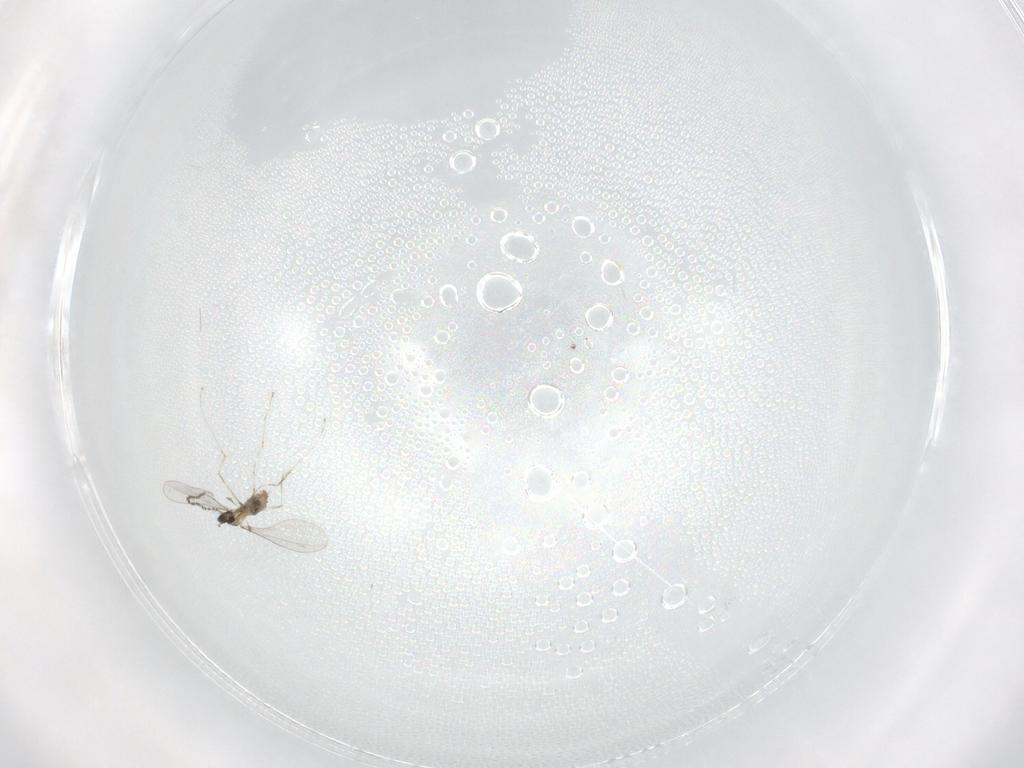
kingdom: Animalia
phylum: Arthropoda
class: Insecta
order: Diptera
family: Cecidomyiidae
